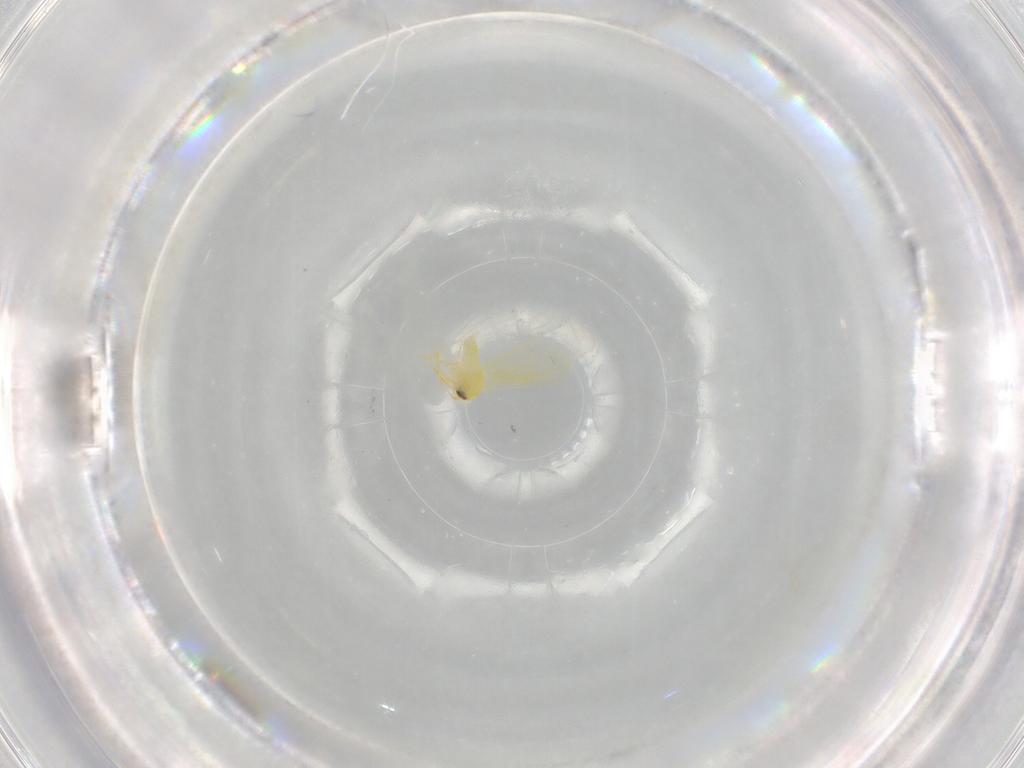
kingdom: Animalia
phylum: Arthropoda
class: Insecta
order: Hemiptera
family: Aleyrodidae
